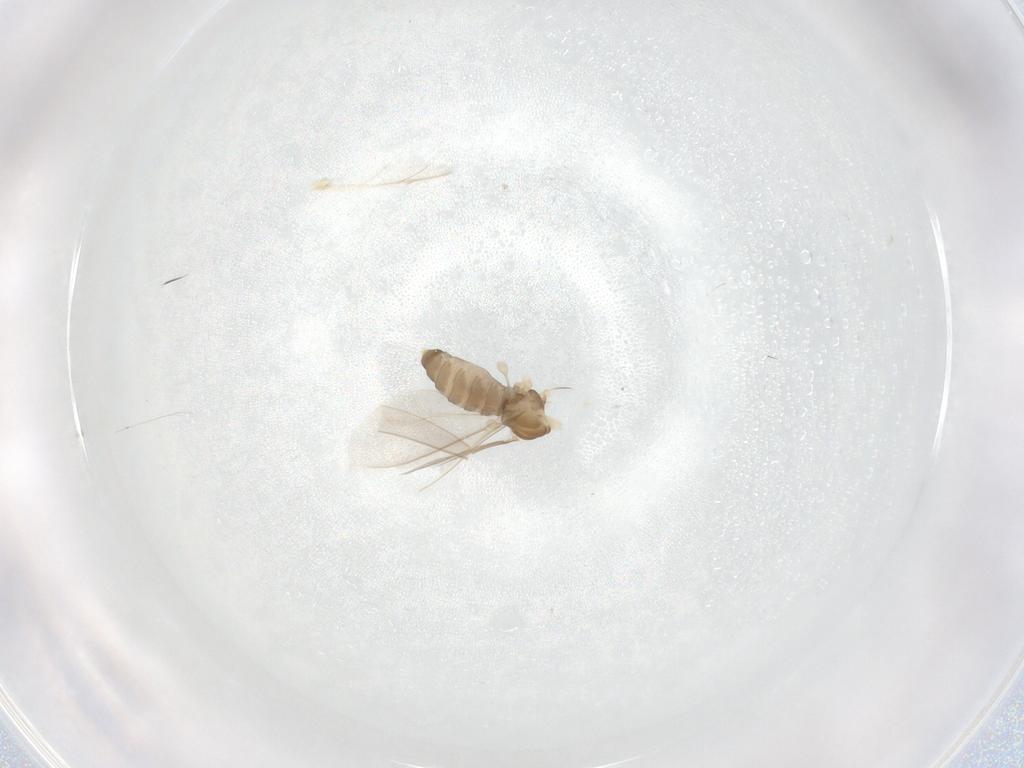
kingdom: Animalia
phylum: Arthropoda
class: Insecta
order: Diptera
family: Cecidomyiidae
